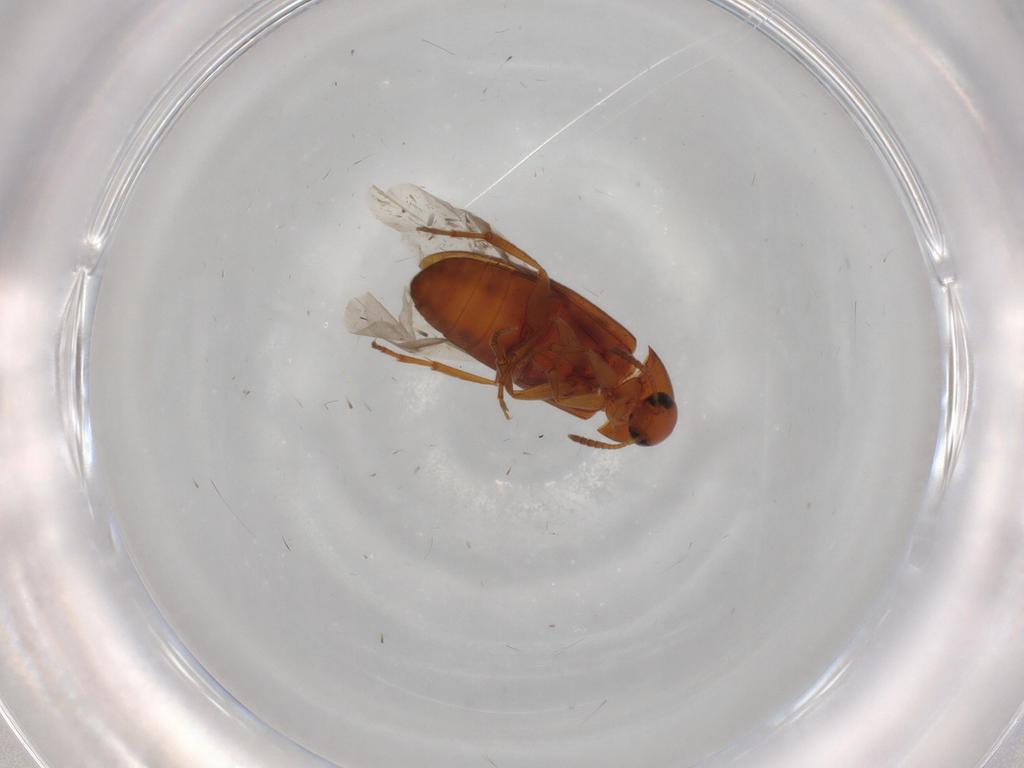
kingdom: Animalia
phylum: Arthropoda
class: Insecta
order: Coleoptera
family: Scraptiidae
